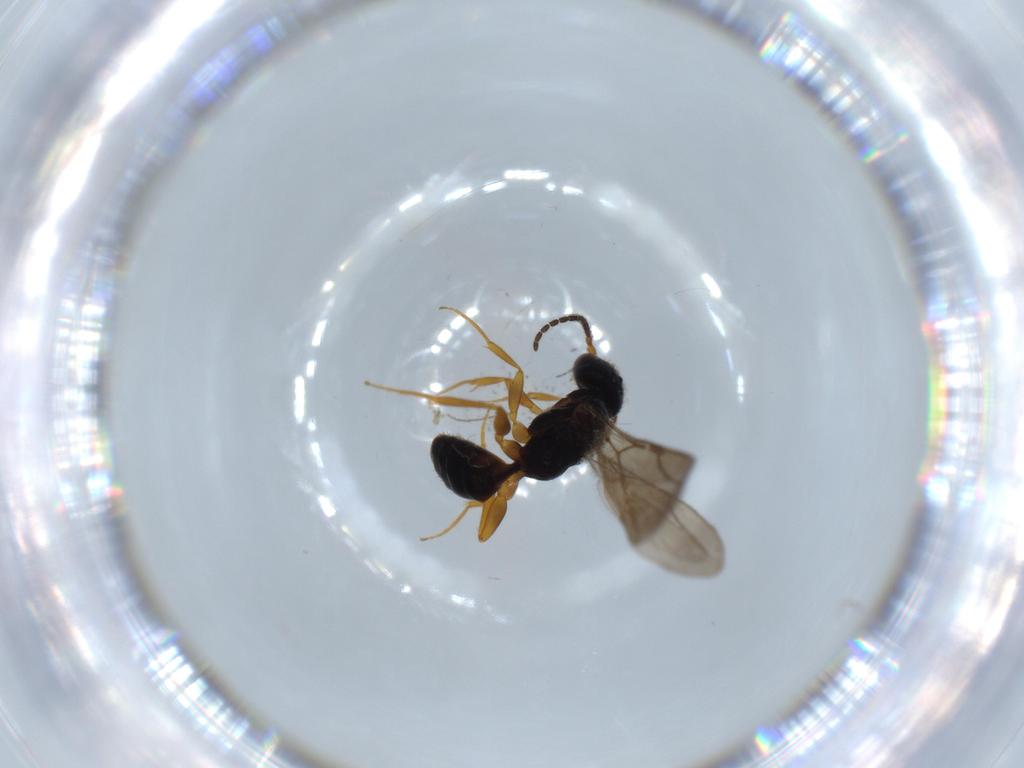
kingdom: Animalia
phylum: Arthropoda
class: Insecta
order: Hymenoptera
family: Bethylidae
